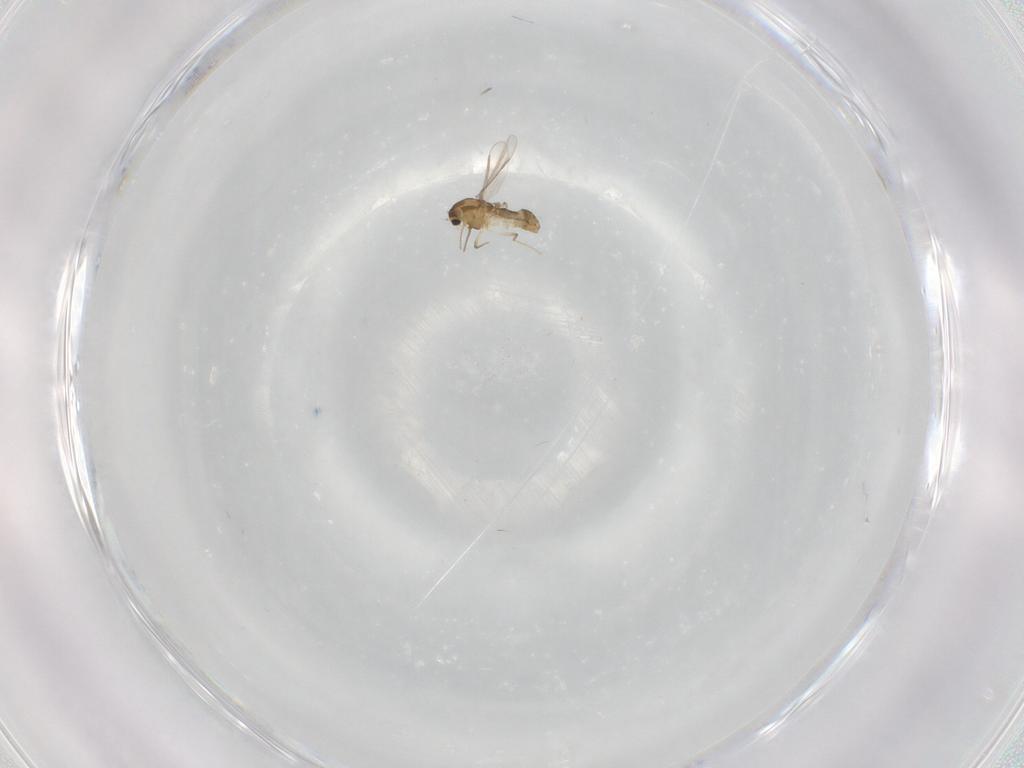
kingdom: Animalia
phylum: Arthropoda
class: Insecta
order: Diptera
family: Chironomidae
